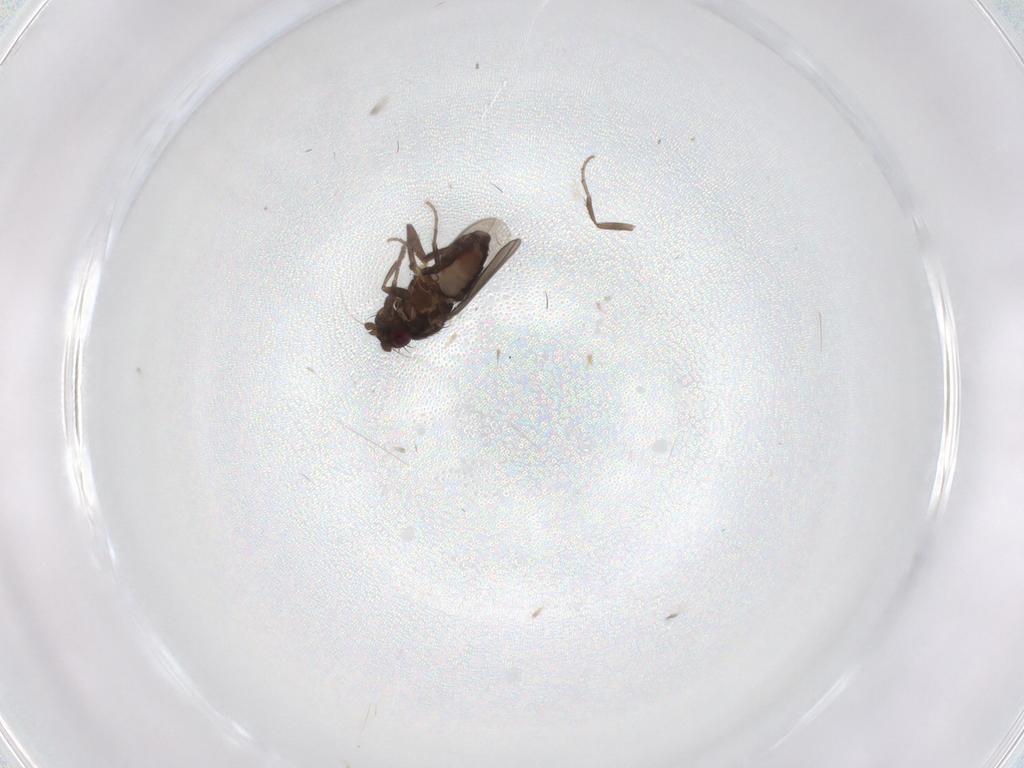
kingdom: Animalia
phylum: Arthropoda
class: Insecta
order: Diptera
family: Sphaeroceridae
